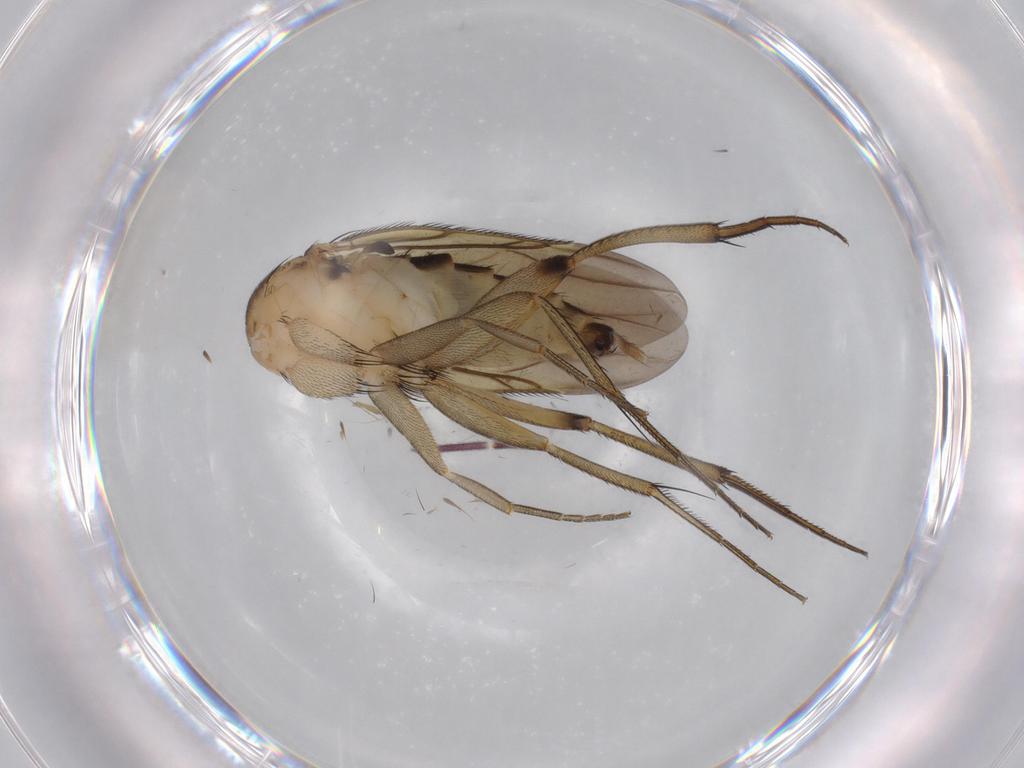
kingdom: Animalia
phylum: Arthropoda
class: Insecta
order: Diptera
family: Phoridae
